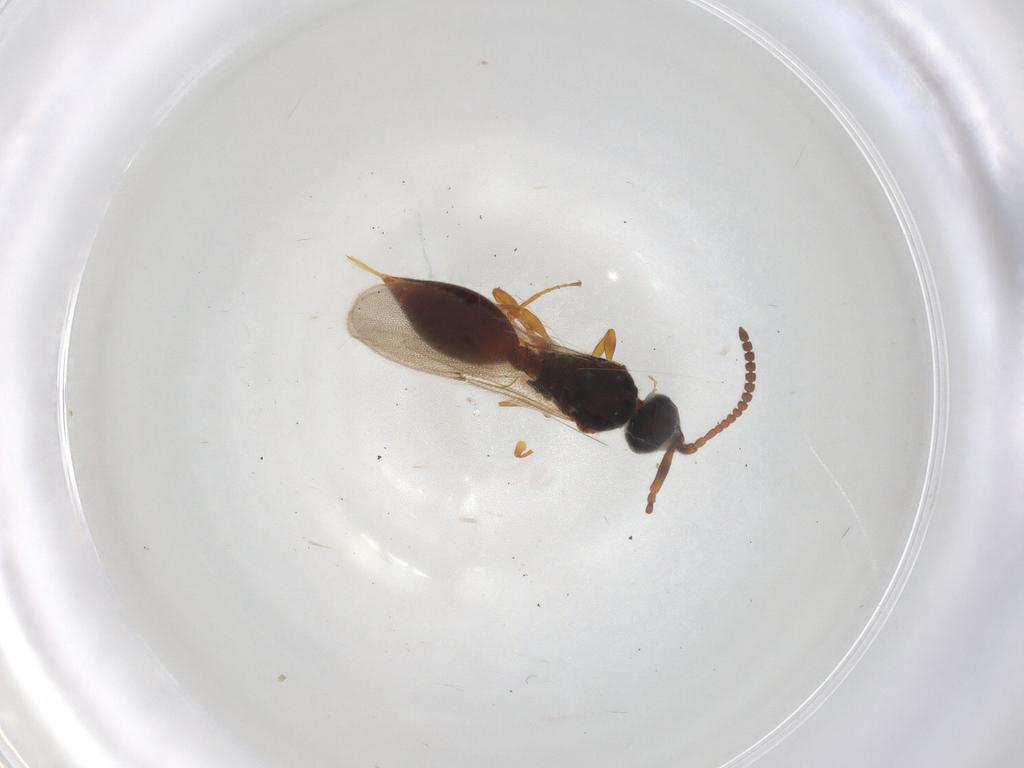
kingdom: Animalia
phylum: Arthropoda
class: Insecta
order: Hymenoptera
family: Diapriidae
